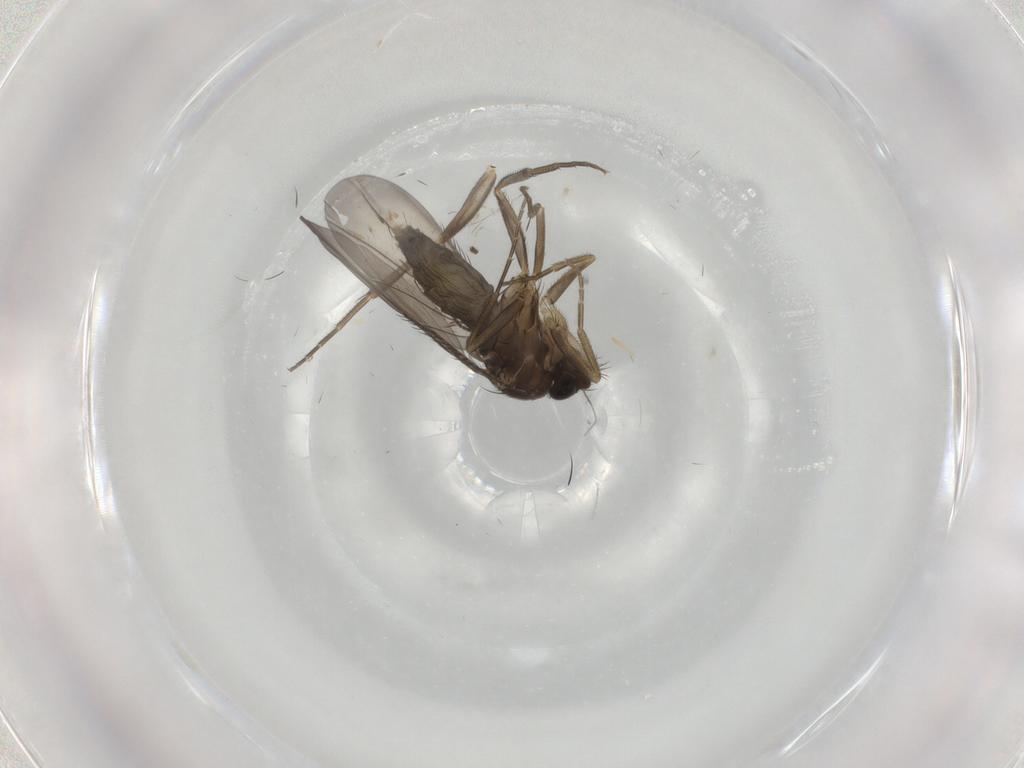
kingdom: Animalia
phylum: Arthropoda
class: Insecta
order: Diptera
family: Phoridae
